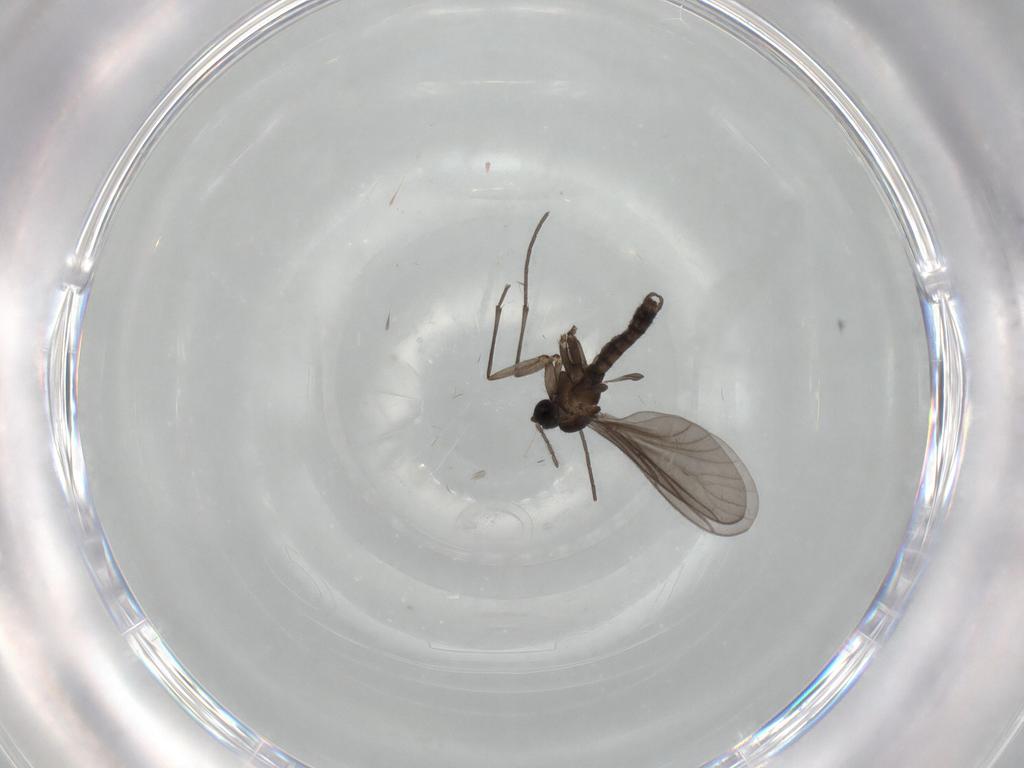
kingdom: Animalia
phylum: Arthropoda
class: Insecta
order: Diptera
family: Sciaridae
